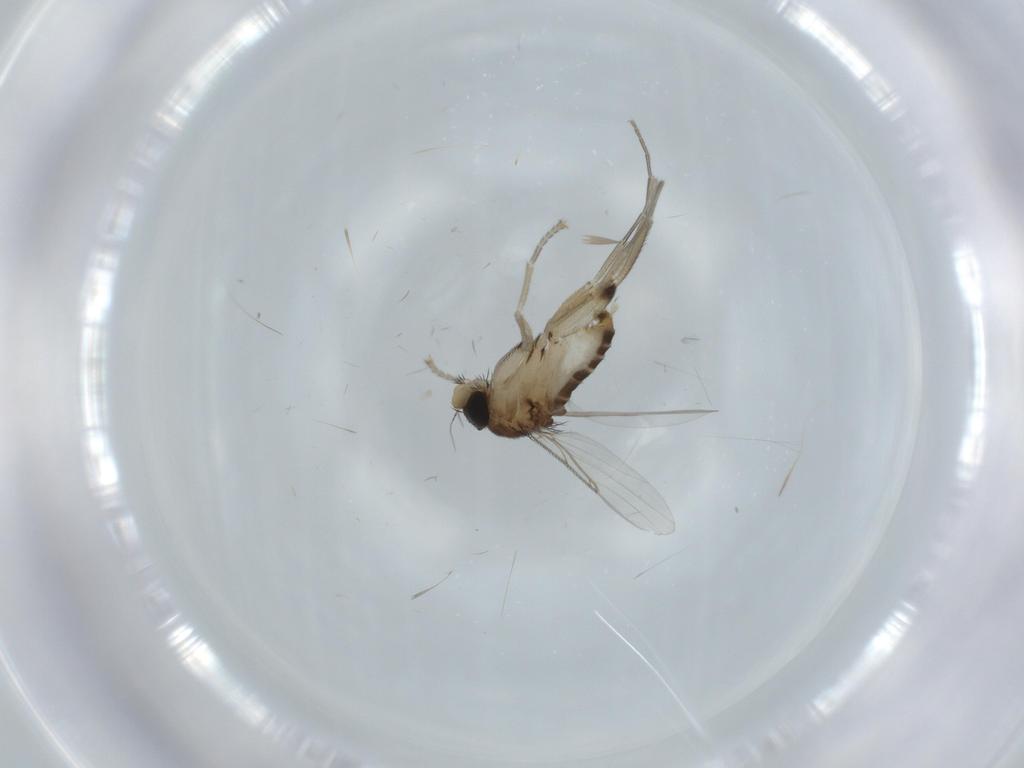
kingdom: Animalia
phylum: Arthropoda
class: Insecta
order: Diptera
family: Phoridae
